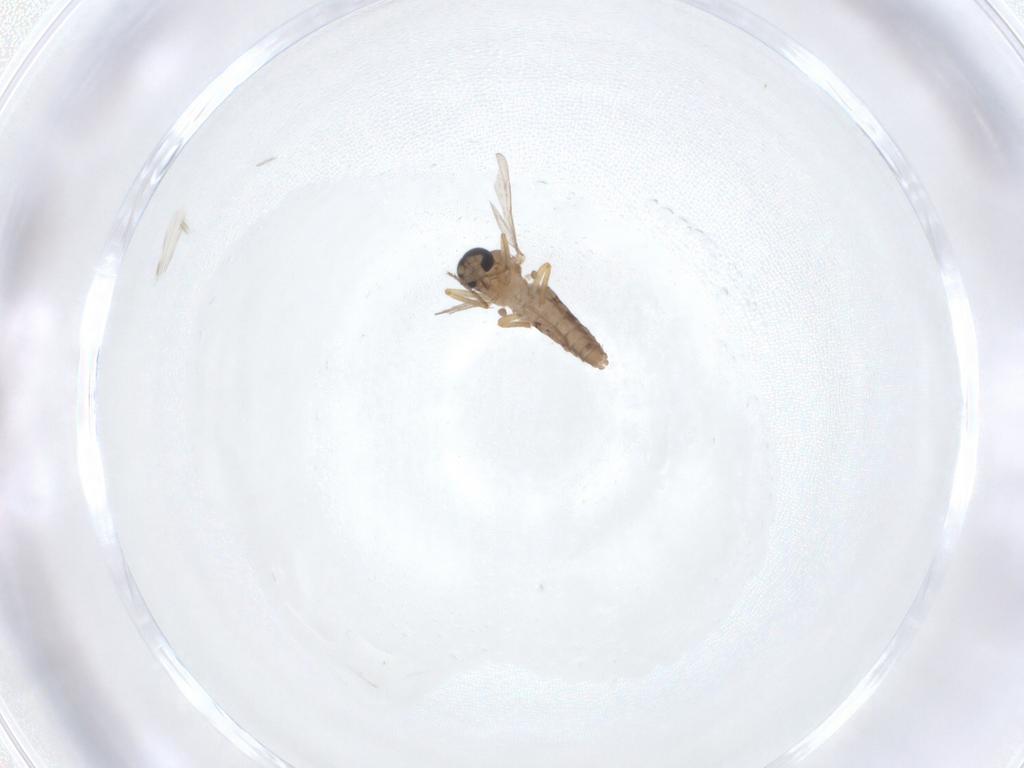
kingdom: Animalia
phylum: Arthropoda
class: Insecta
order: Diptera
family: Ceratopogonidae
